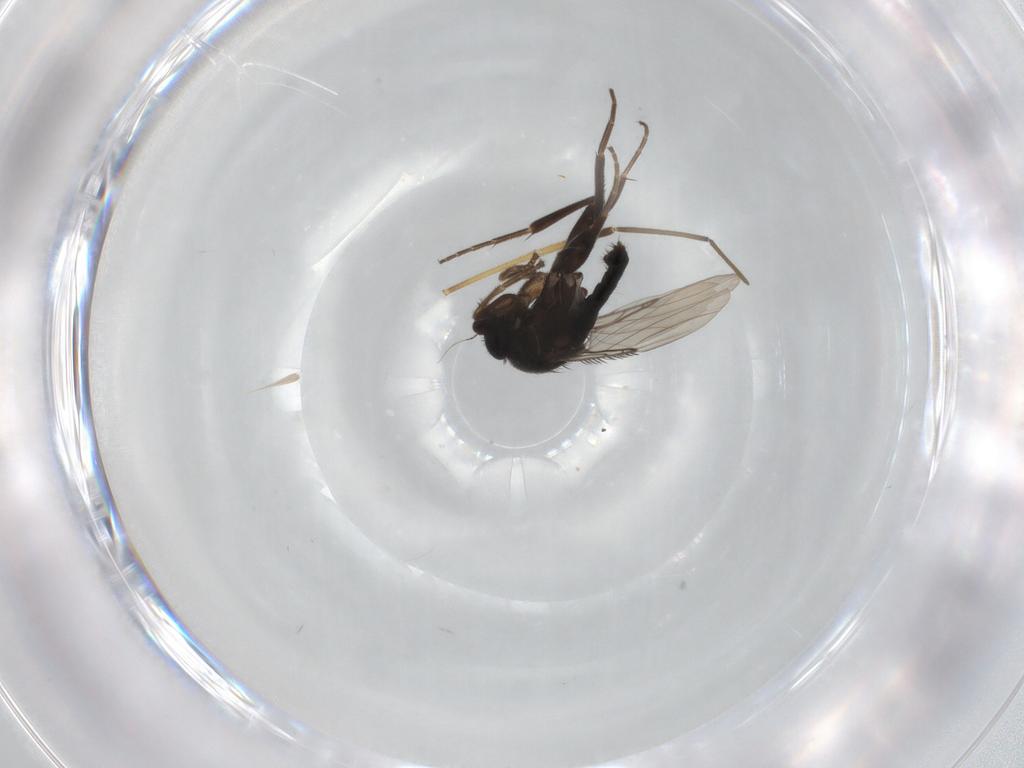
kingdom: Animalia
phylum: Arthropoda
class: Insecta
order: Diptera
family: Phoridae
